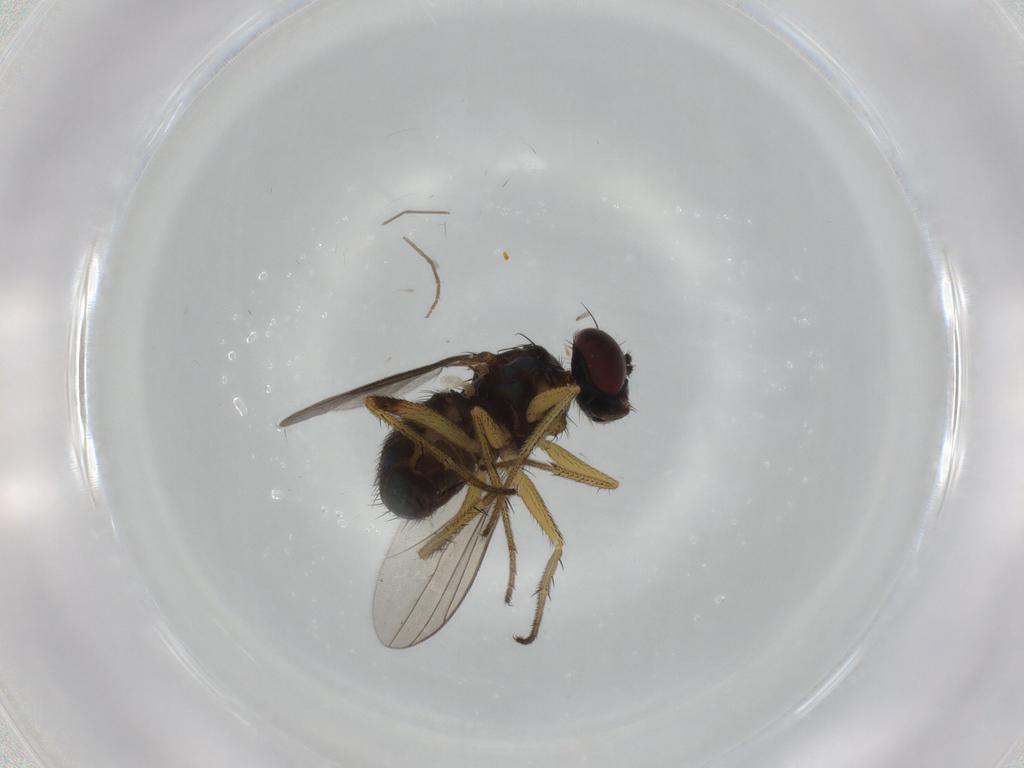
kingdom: Animalia
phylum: Arthropoda
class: Insecta
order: Diptera
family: Dolichopodidae
